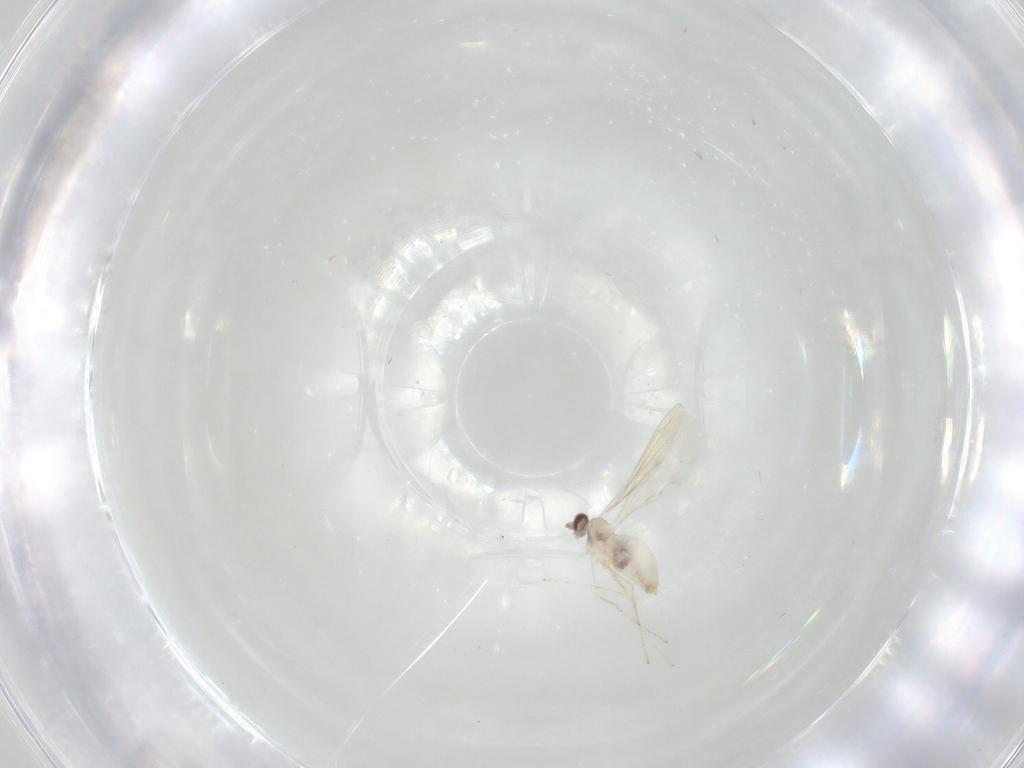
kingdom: Animalia
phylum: Arthropoda
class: Insecta
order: Diptera
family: Cecidomyiidae
